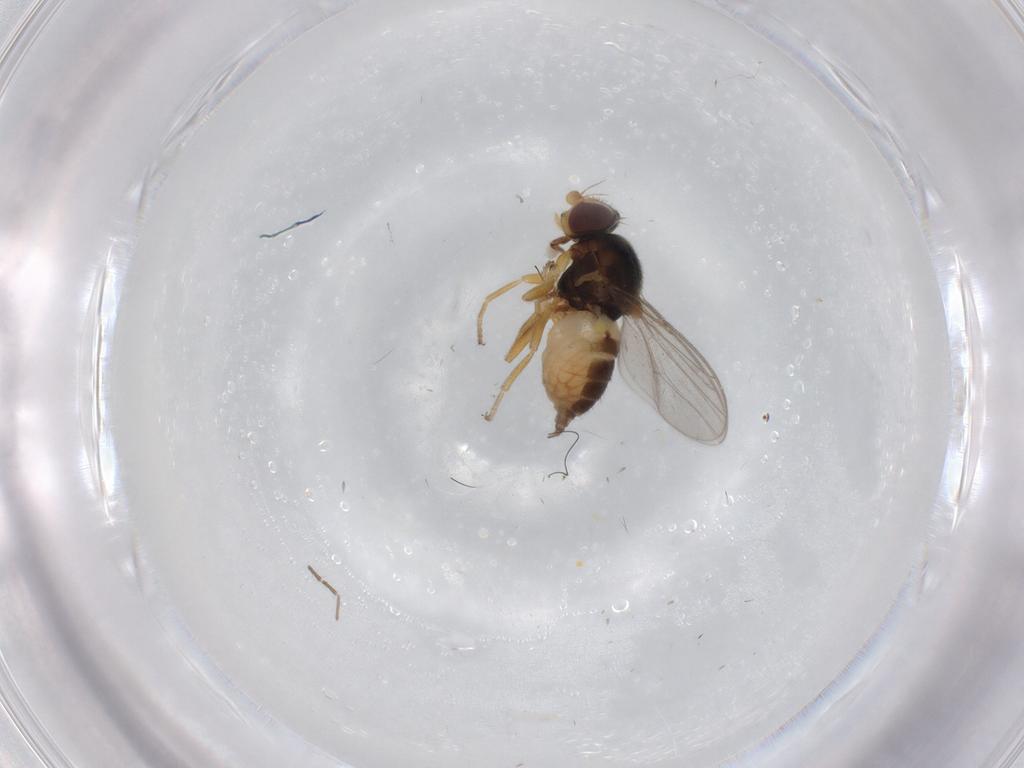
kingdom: Animalia
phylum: Arthropoda
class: Insecta
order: Diptera
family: Chloropidae
